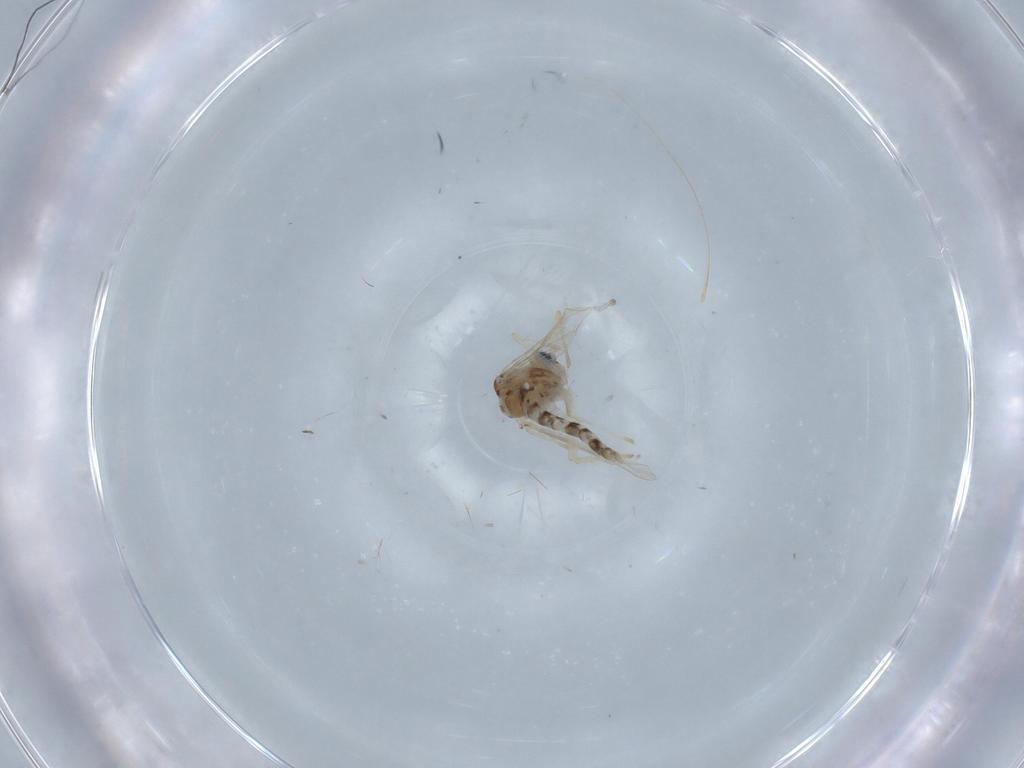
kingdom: Animalia
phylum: Arthropoda
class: Insecta
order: Diptera
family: Chironomidae
